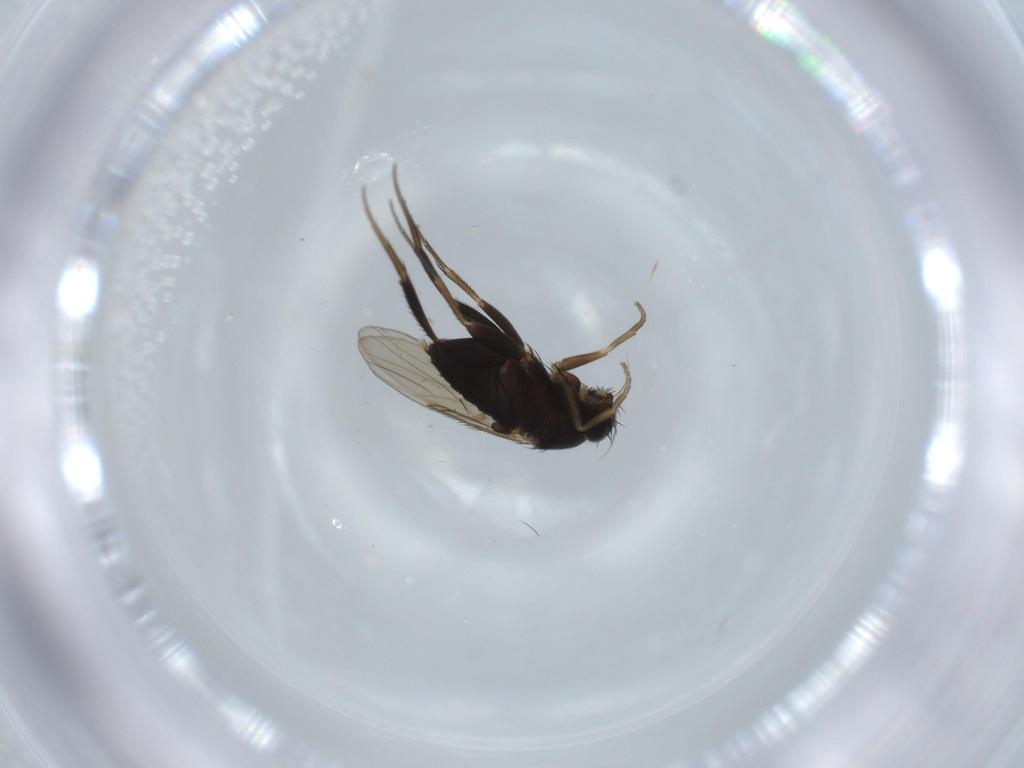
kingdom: Animalia
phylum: Arthropoda
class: Insecta
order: Diptera
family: Phoridae
